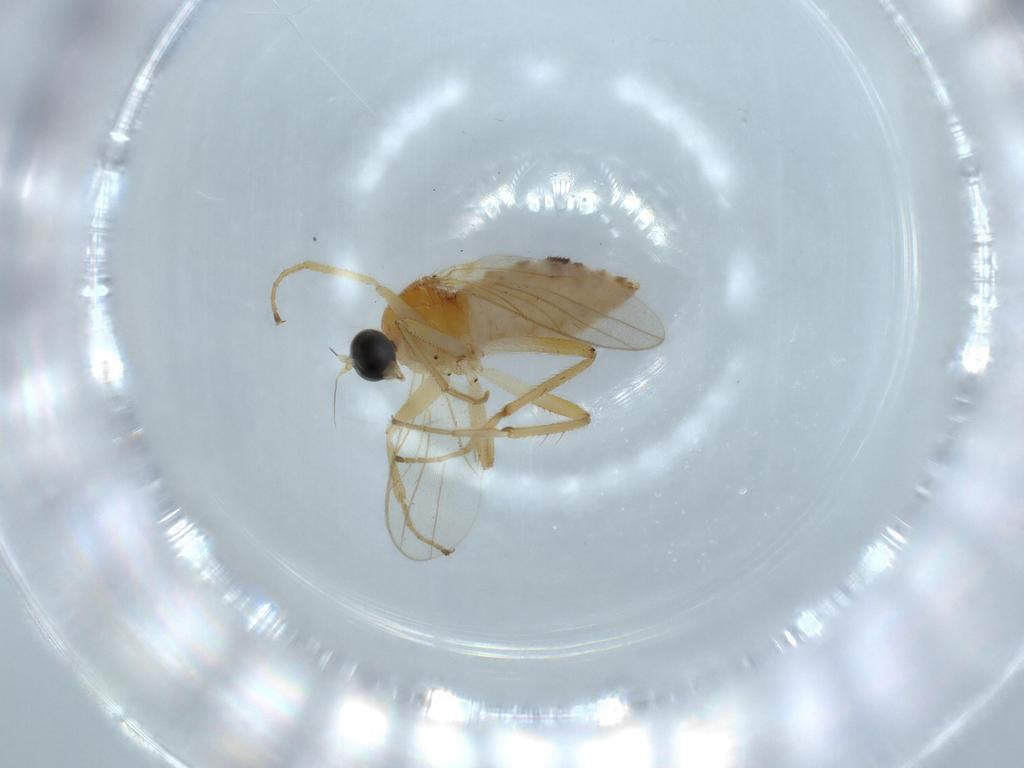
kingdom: Animalia
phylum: Arthropoda
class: Insecta
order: Diptera
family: Hybotidae
